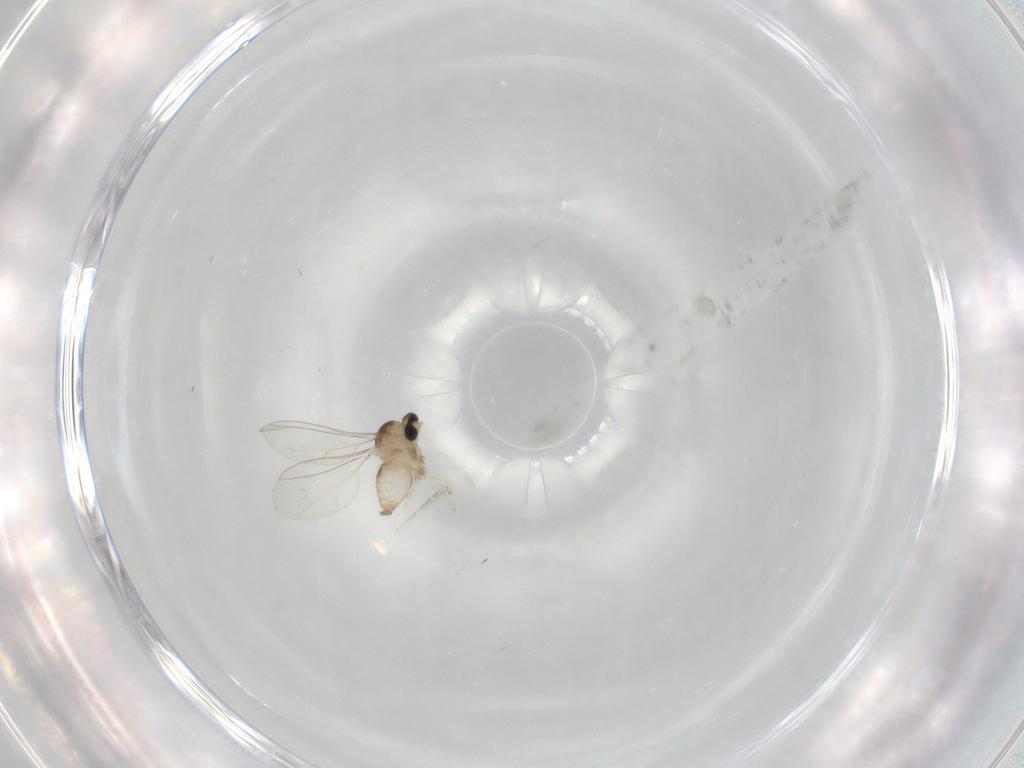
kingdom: Animalia
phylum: Arthropoda
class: Insecta
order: Diptera
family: Cecidomyiidae
